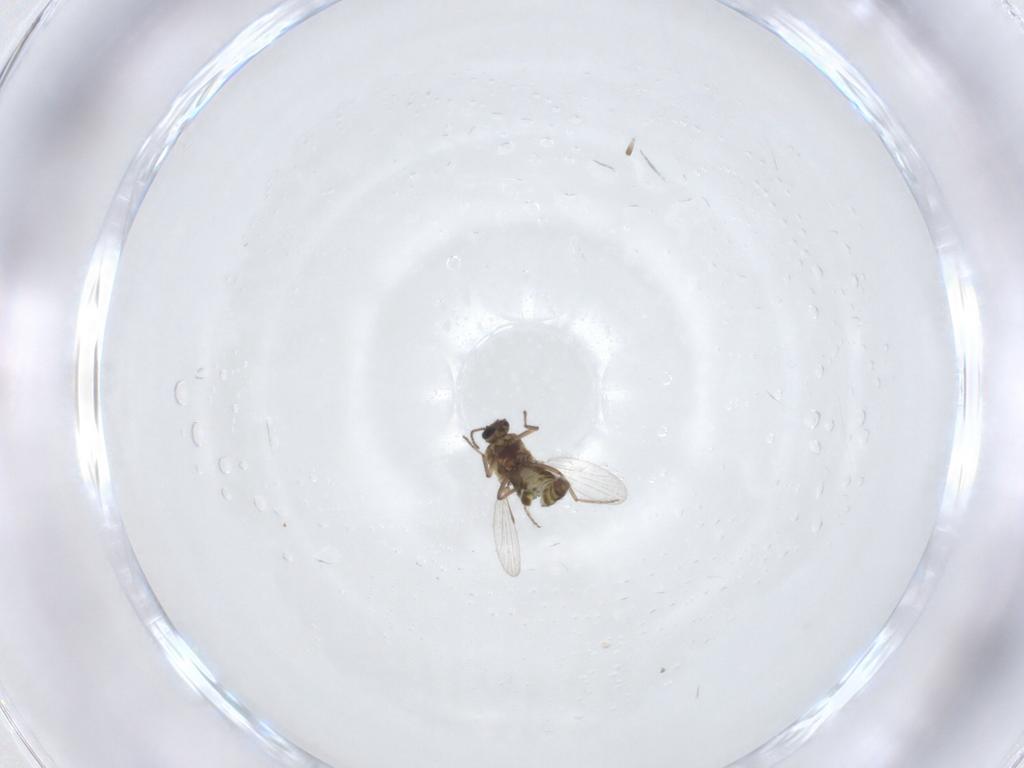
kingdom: Animalia
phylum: Arthropoda
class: Insecta
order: Diptera
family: Ceratopogonidae
